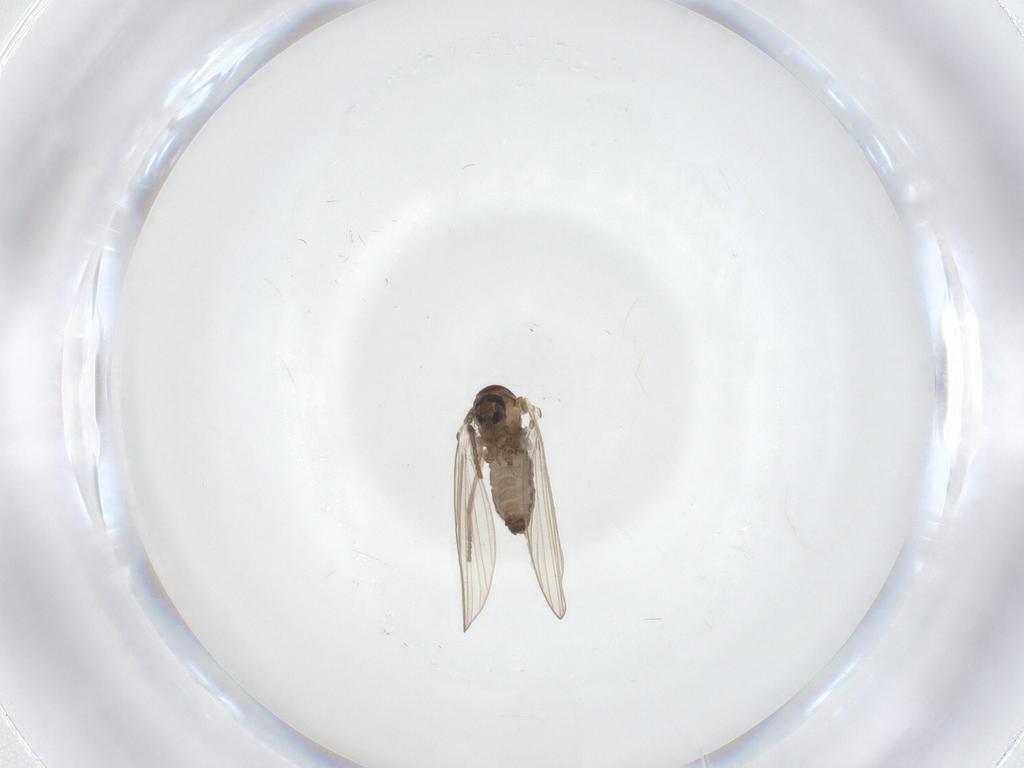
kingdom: Animalia
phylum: Arthropoda
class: Insecta
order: Diptera
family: Psychodidae
